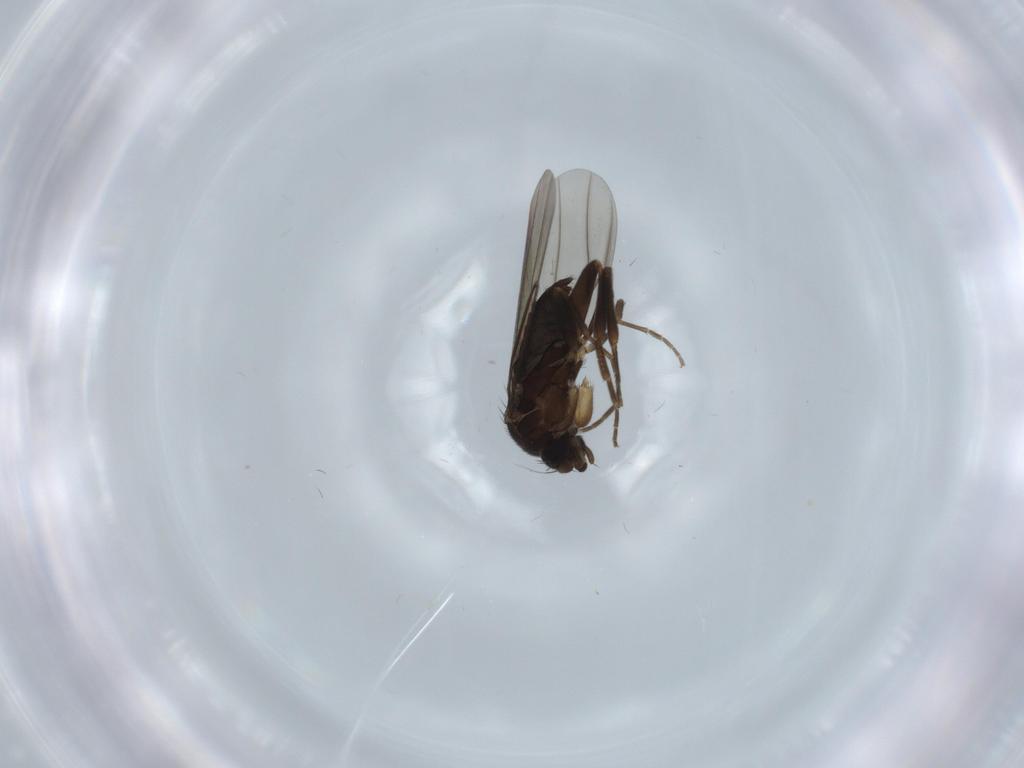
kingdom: Animalia
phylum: Arthropoda
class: Insecta
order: Diptera
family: Phoridae
